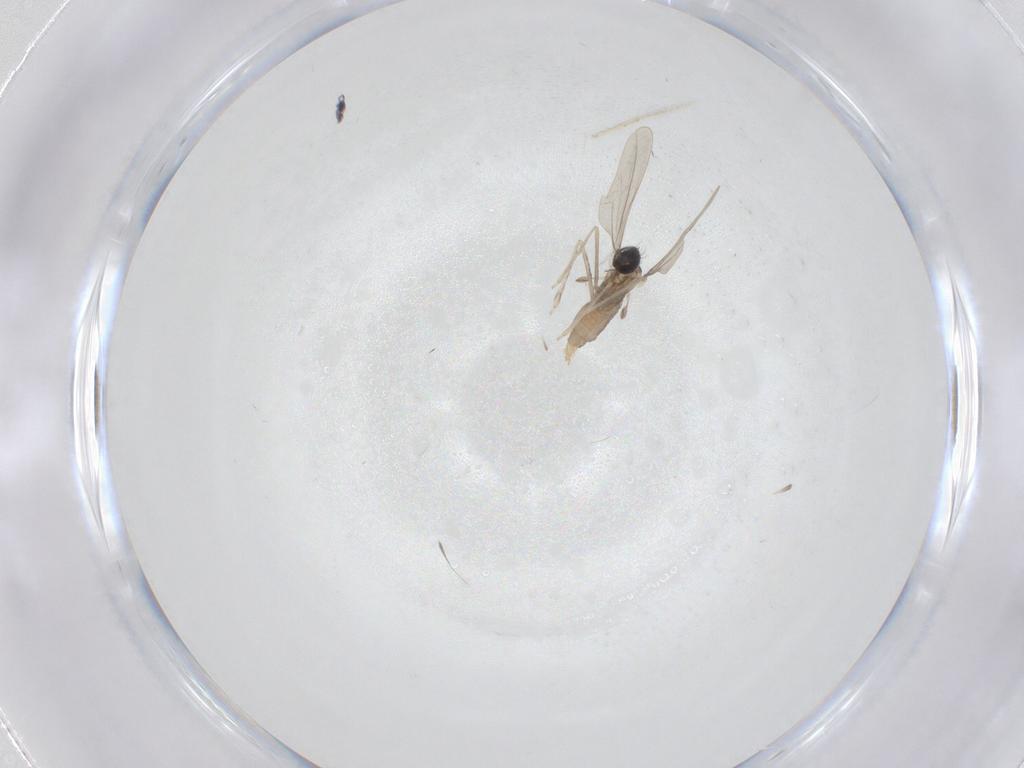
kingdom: Animalia
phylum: Arthropoda
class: Insecta
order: Diptera
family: Cecidomyiidae
